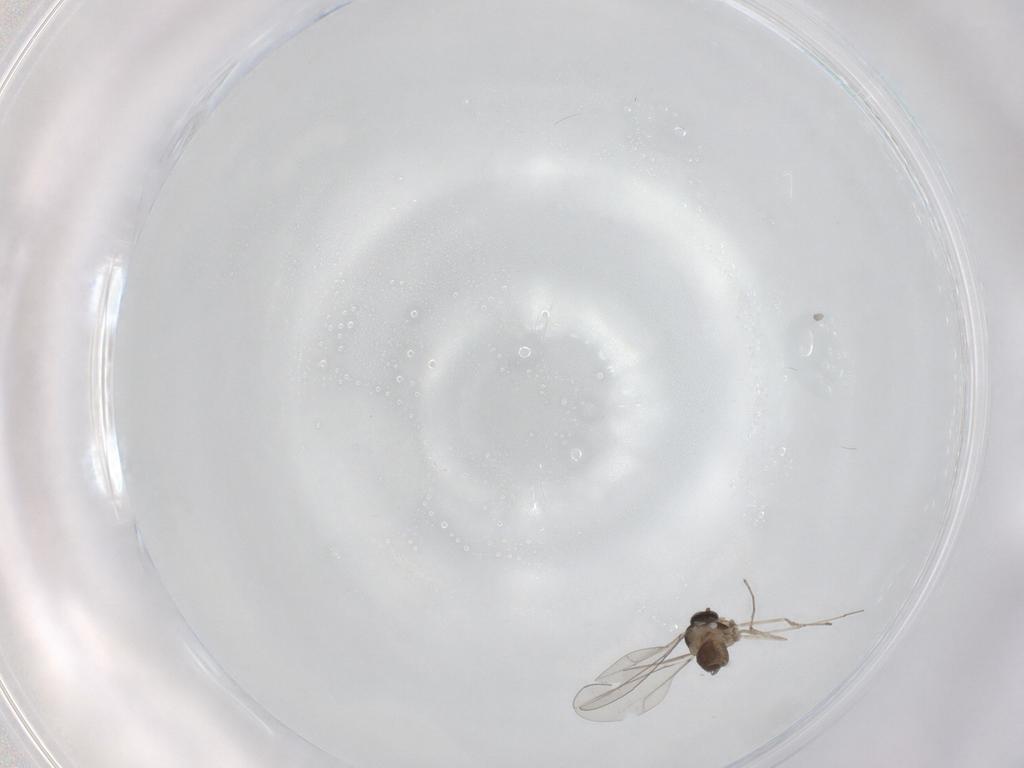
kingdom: Animalia
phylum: Arthropoda
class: Insecta
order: Diptera
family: Cecidomyiidae
